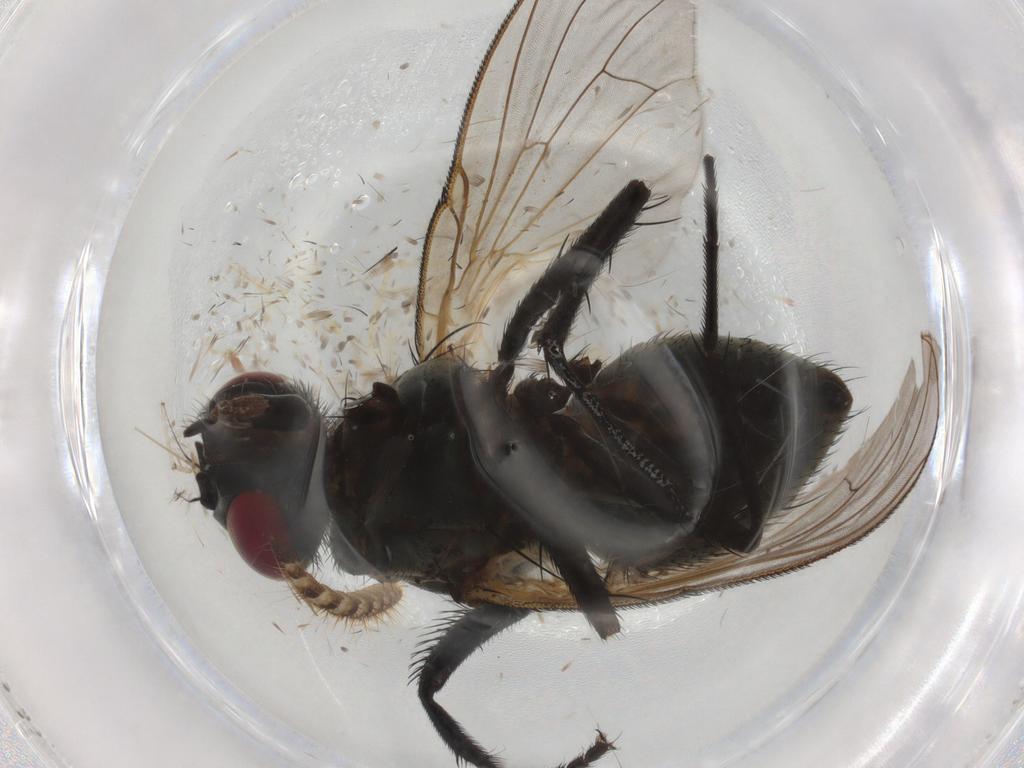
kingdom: Animalia
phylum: Arthropoda
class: Insecta
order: Diptera
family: Muscidae
